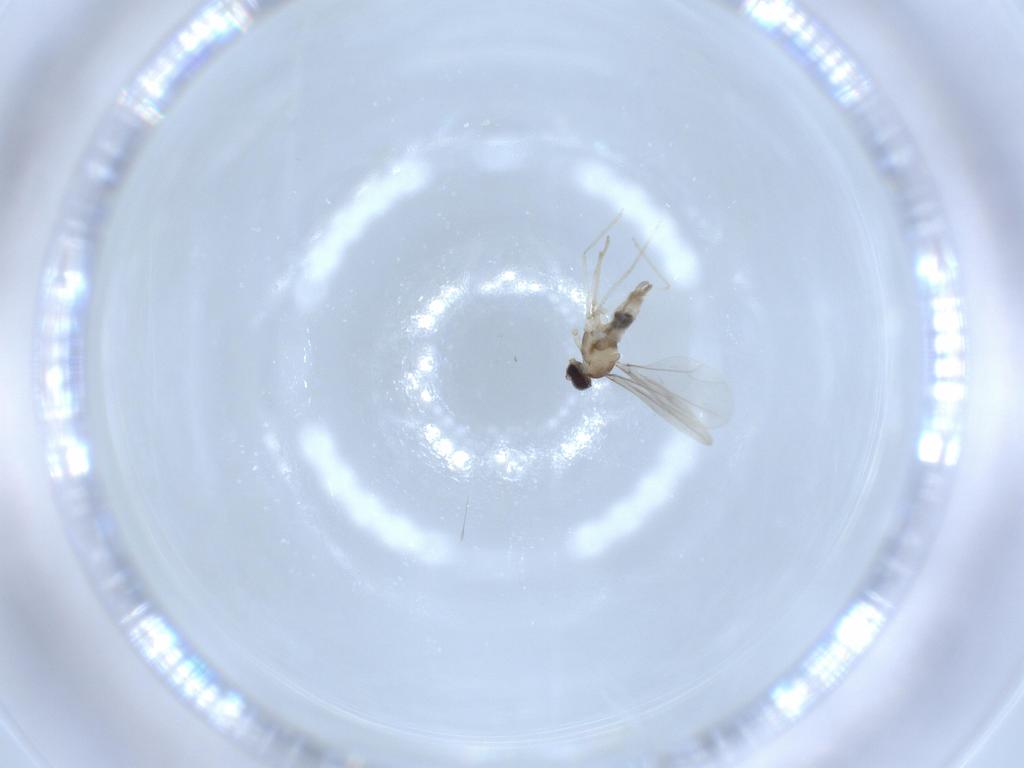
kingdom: Animalia
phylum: Arthropoda
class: Insecta
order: Diptera
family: Cecidomyiidae
